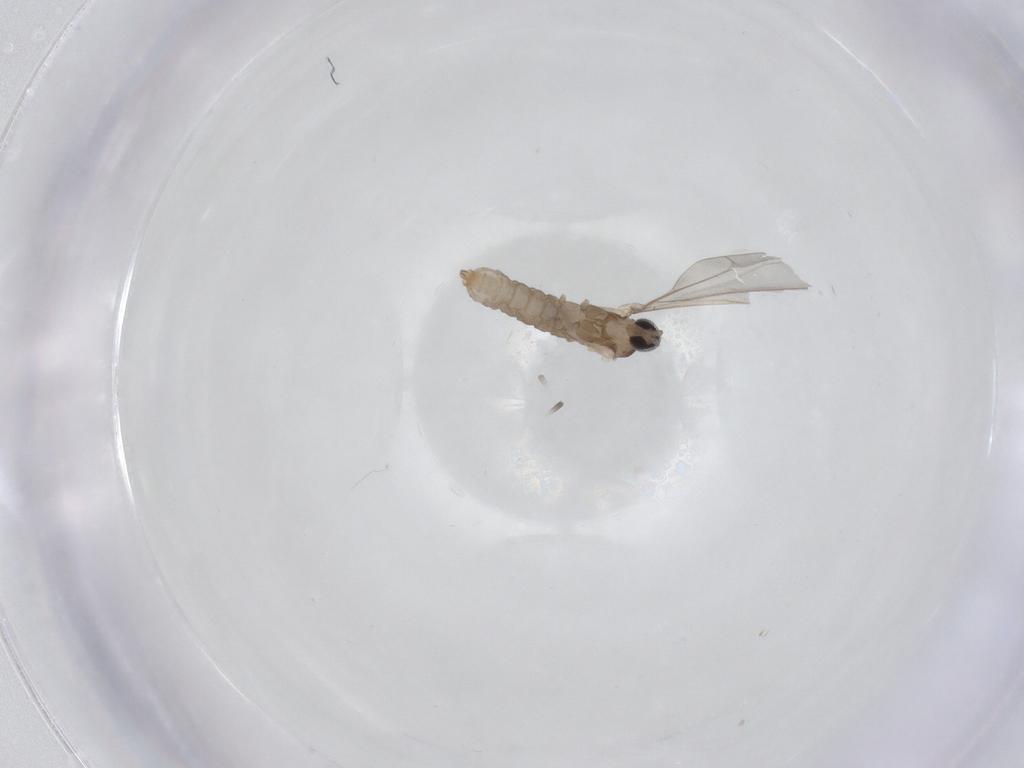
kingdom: Animalia
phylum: Arthropoda
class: Insecta
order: Diptera
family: Cecidomyiidae
